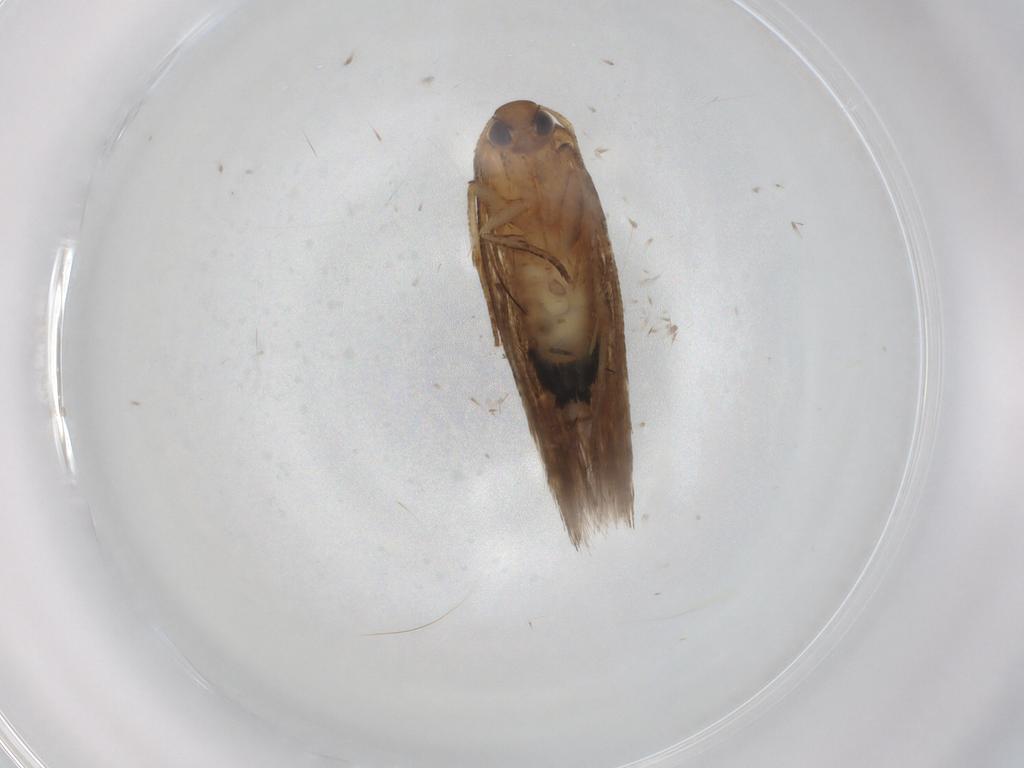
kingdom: Animalia
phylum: Arthropoda
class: Insecta
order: Lepidoptera
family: Cosmopterigidae
